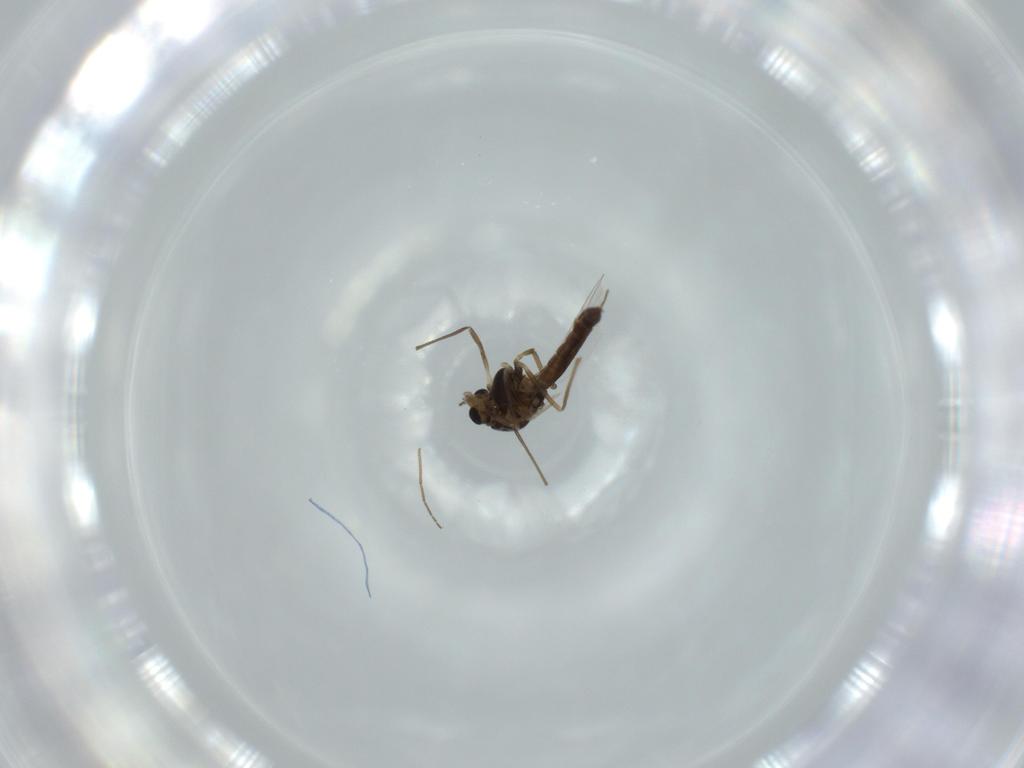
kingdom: Animalia
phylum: Arthropoda
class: Insecta
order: Diptera
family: Chironomidae
